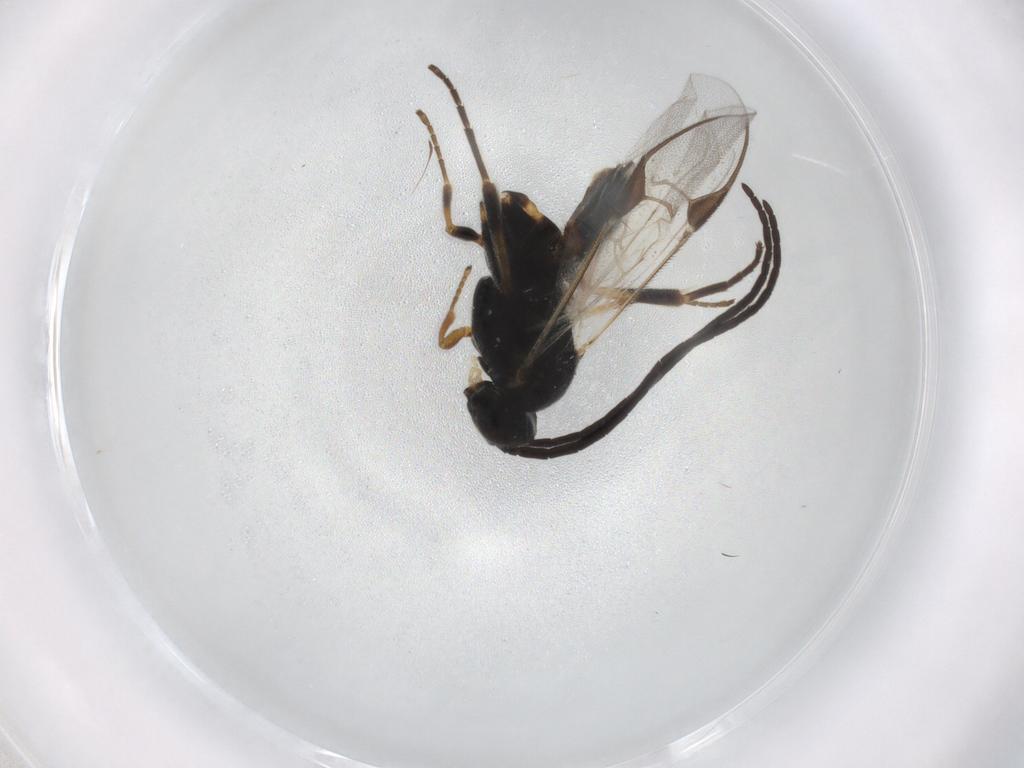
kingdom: Animalia
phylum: Arthropoda
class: Insecta
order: Hymenoptera
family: Braconidae
